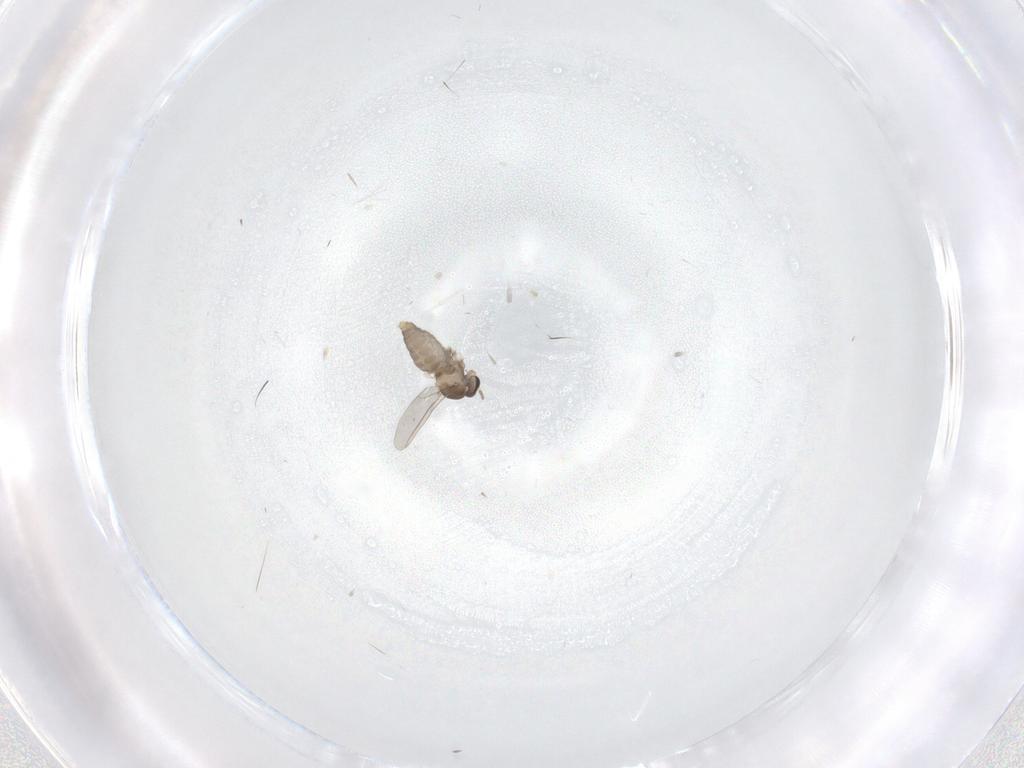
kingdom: Animalia
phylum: Arthropoda
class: Insecta
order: Diptera
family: Cecidomyiidae
